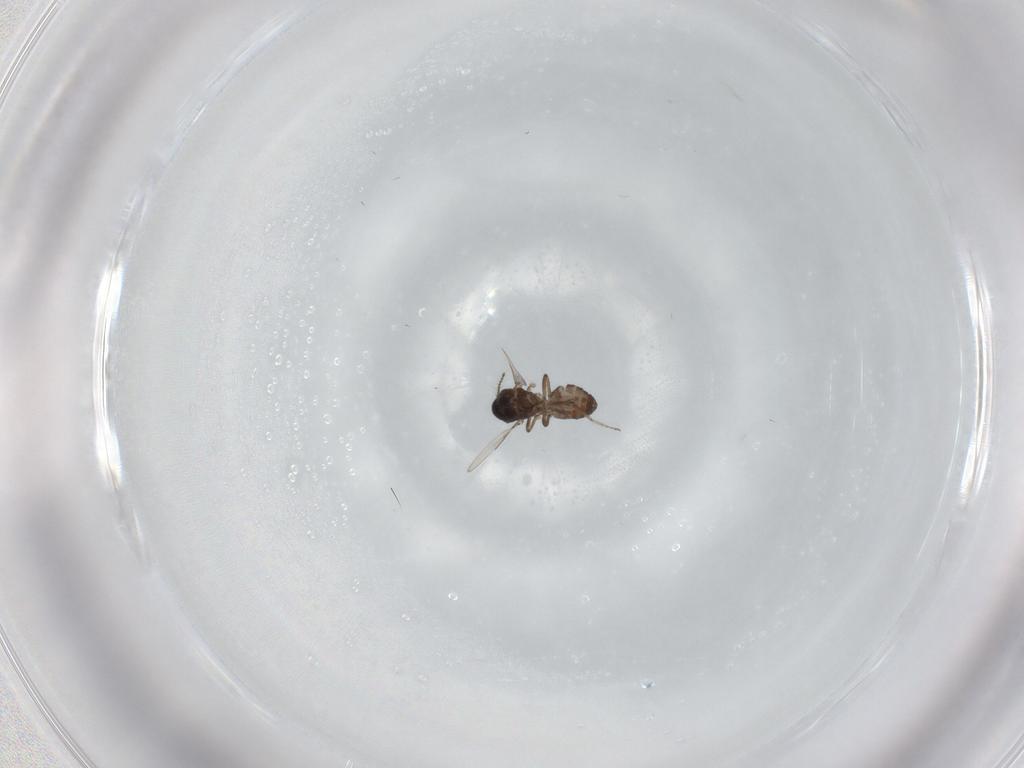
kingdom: Animalia
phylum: Arthropoda
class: Insecta
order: Diptera
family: Ceratopogonidae
